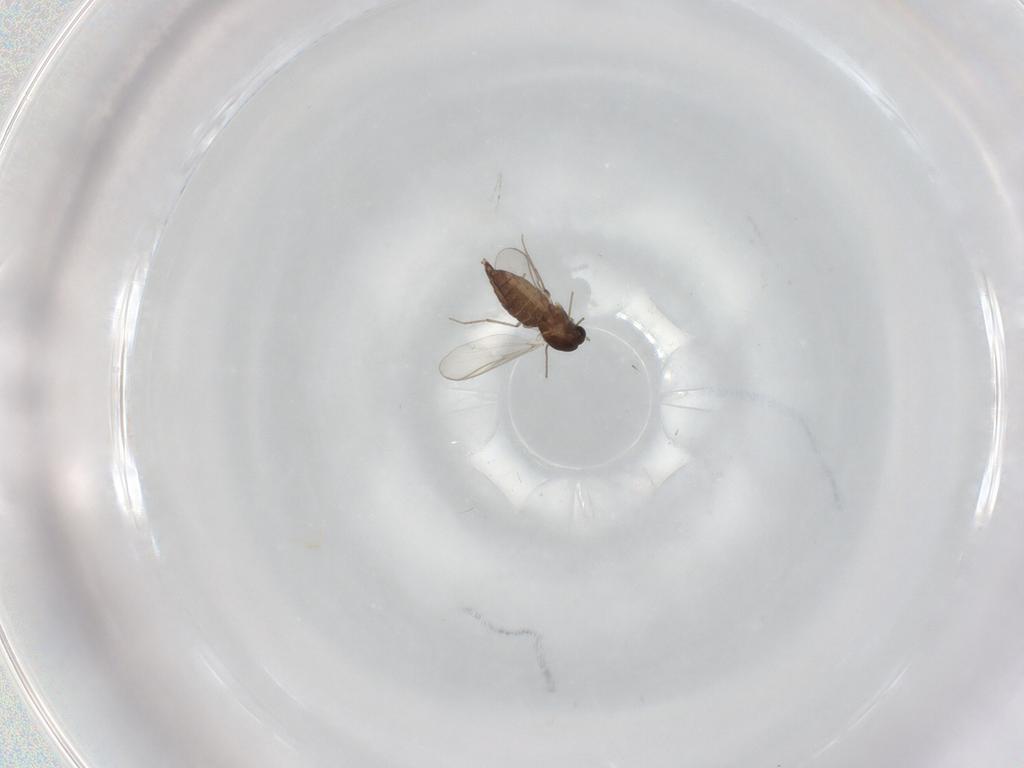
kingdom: Animalia
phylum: Arthropoda
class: Insecta
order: Diptera
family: Chironomidae
